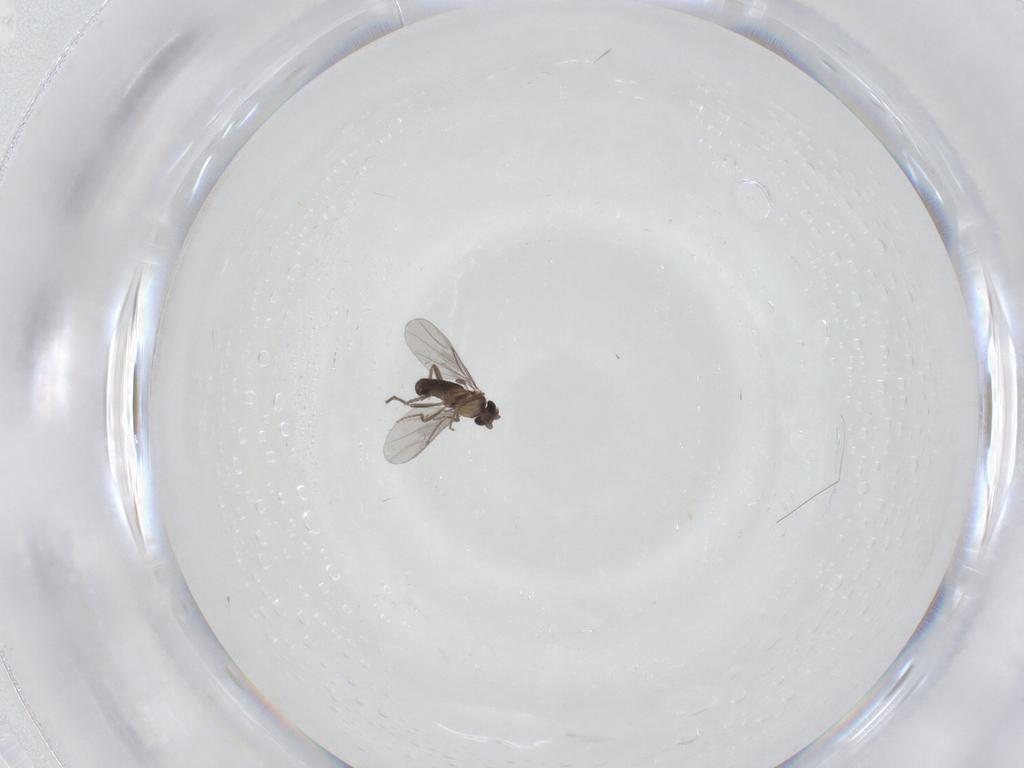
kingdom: Animalia
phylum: Arthropoda
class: Insecta
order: Diptera
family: Phoridae
